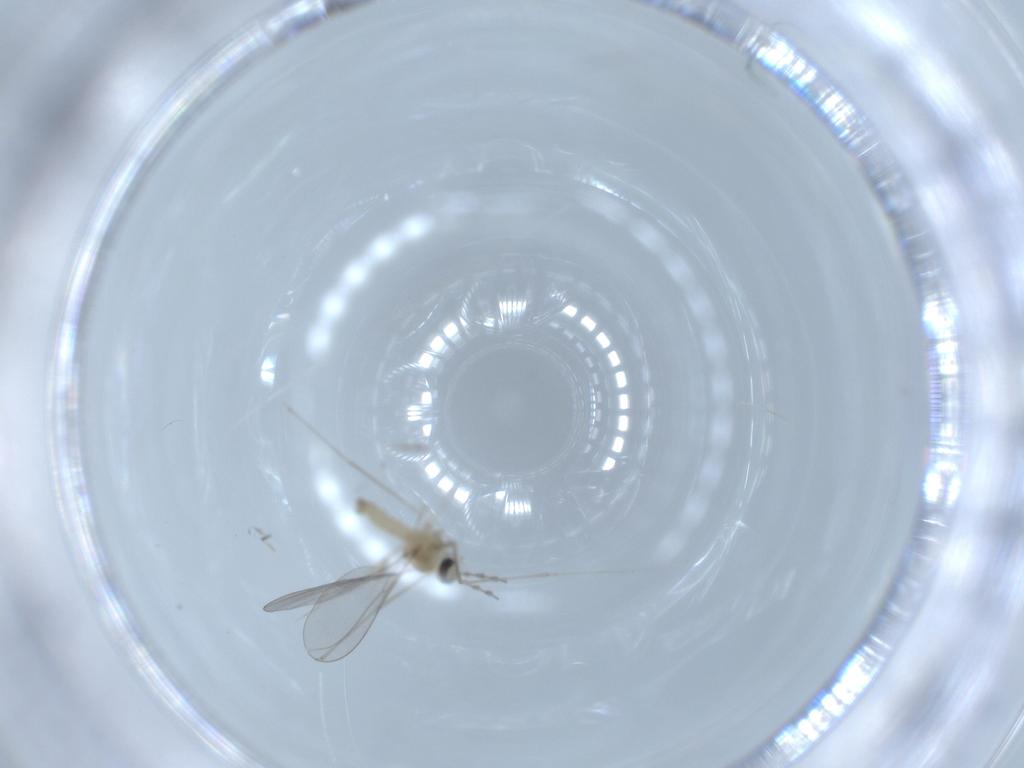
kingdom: Animalia
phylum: Arthropoda
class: Insecta
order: Diptera
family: Cecidomyiidae
